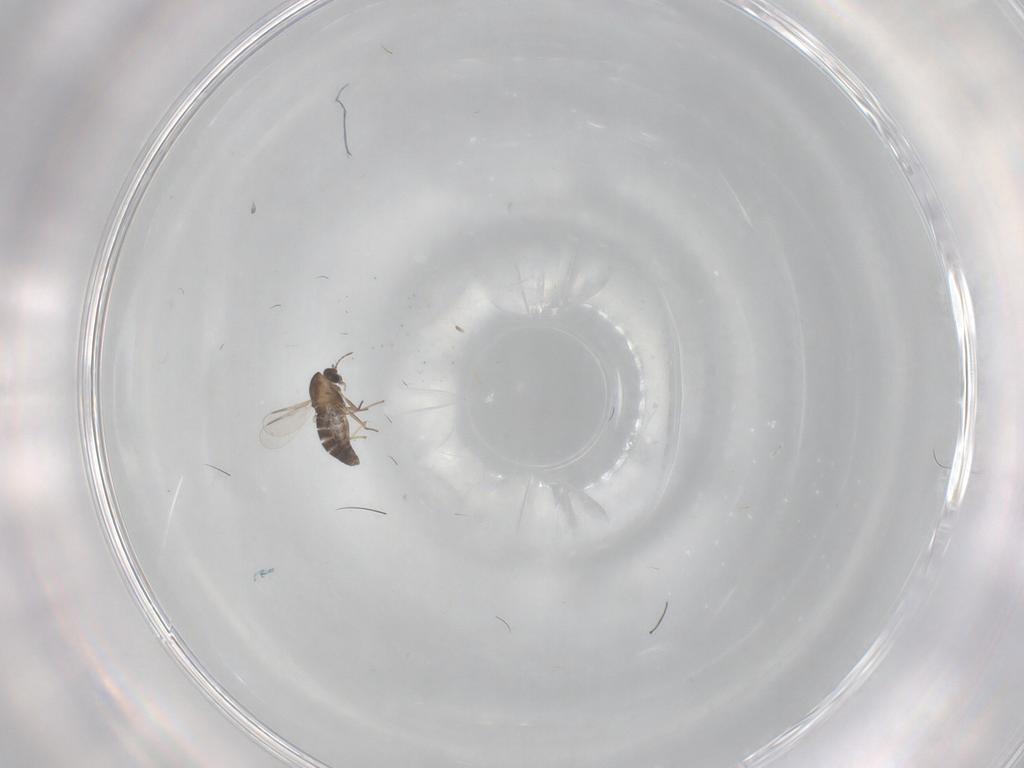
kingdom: Animalia
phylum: Arthropoda
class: Insecta
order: Diptera
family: Chironomidae
